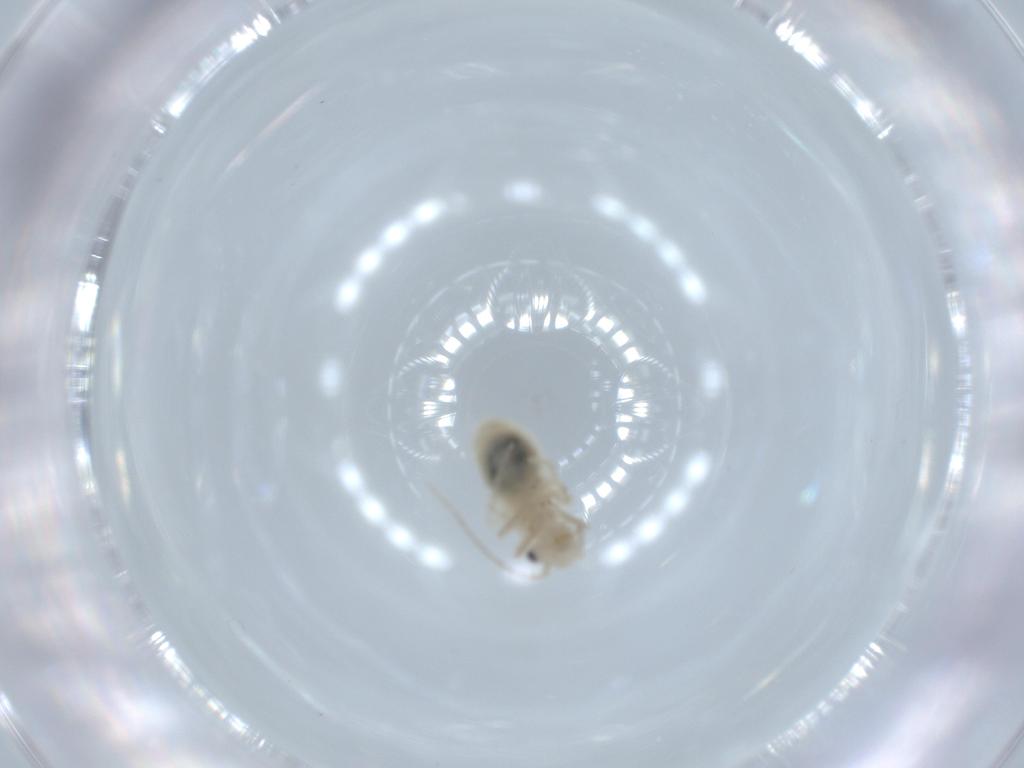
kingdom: Animalia
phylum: Arthropoda
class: Insecta
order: Psocodea
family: Caeciliusidae
